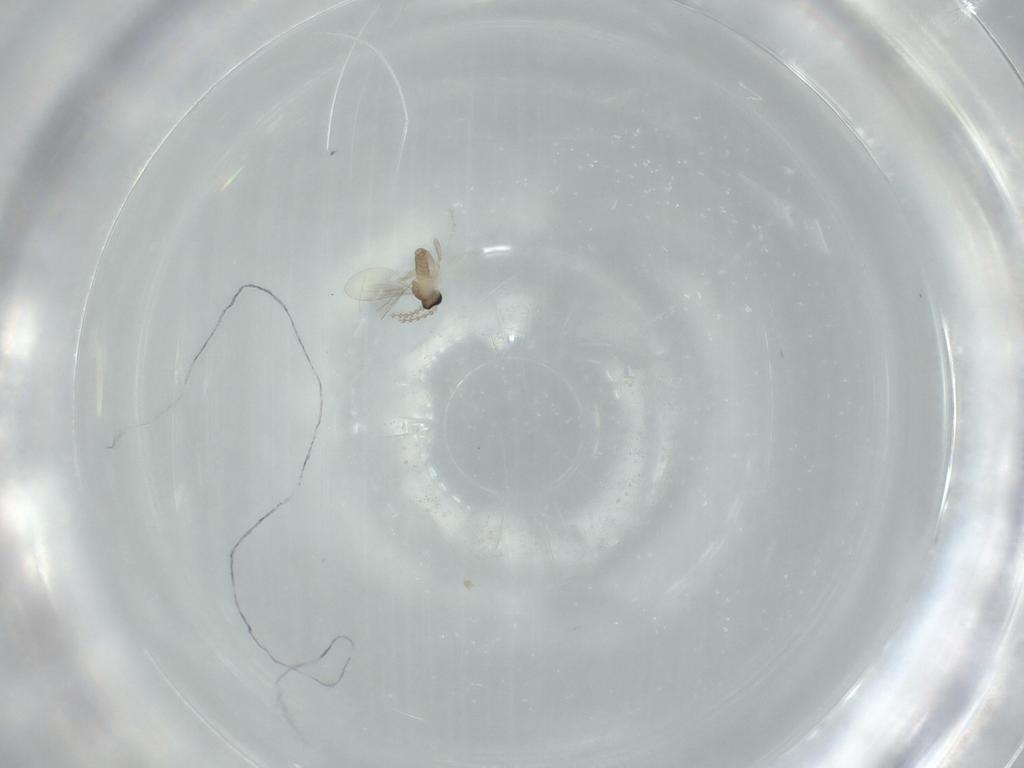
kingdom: Animalia
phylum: Arthropoda
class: Insecta
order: Diptera
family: Cecidomyiidae
